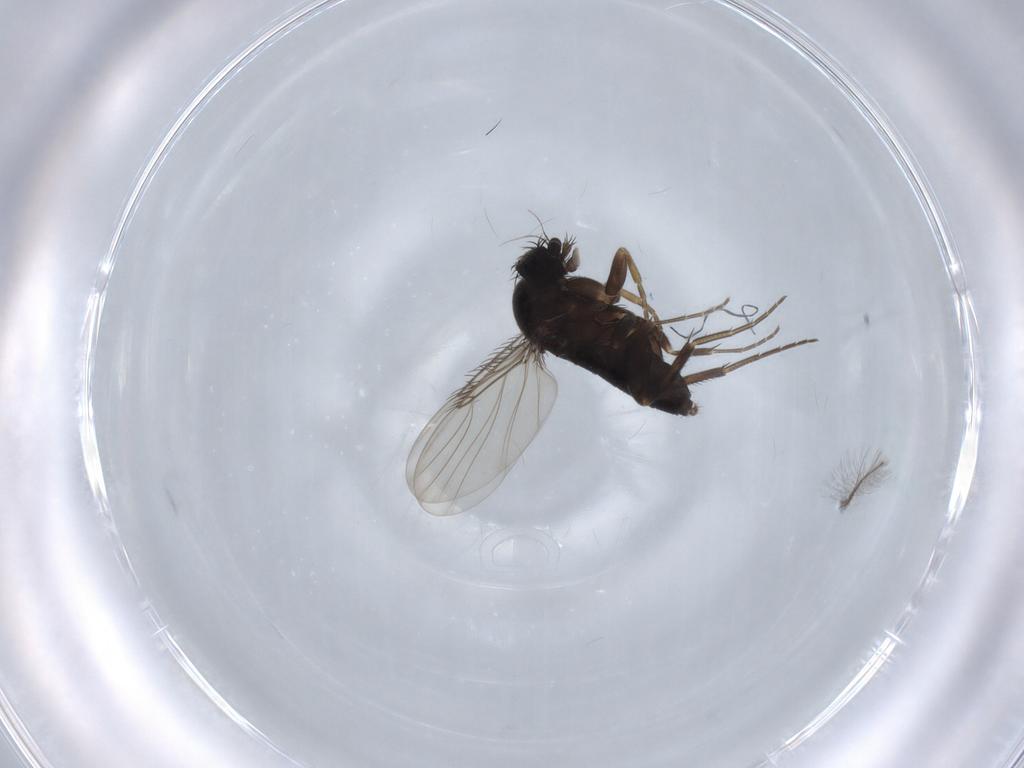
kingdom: Animalia
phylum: Arthropoda
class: Insecta
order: Diptera
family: Phoridae
